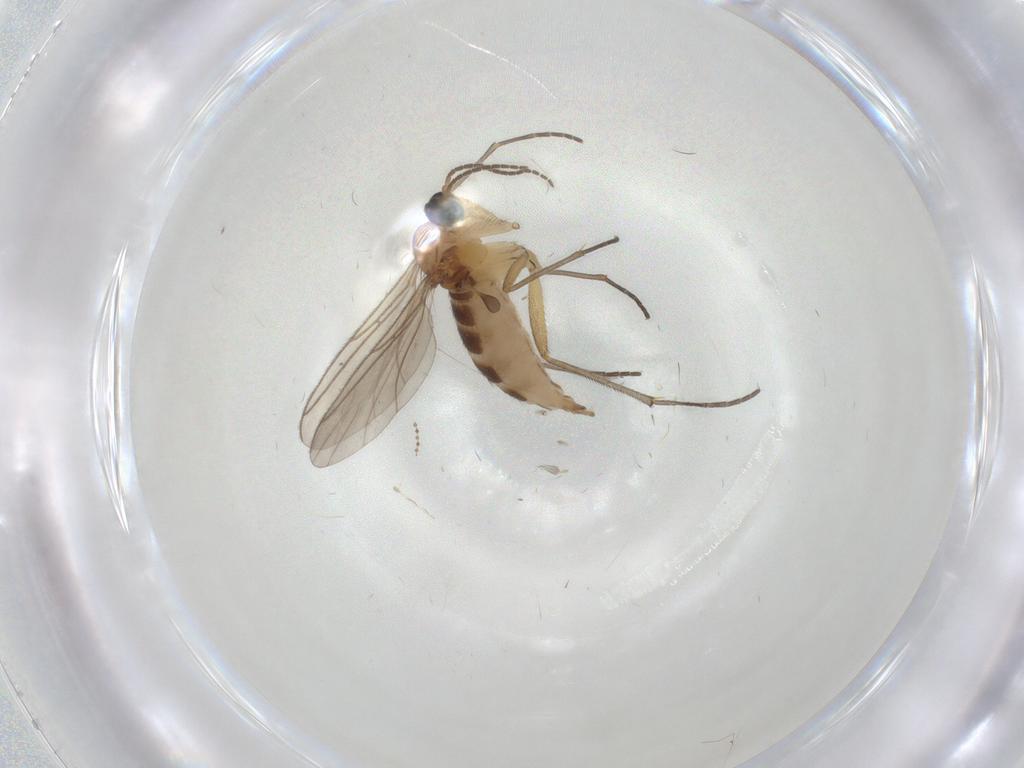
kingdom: Animalia
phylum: Arthropoda
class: Insecta
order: Diptera
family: Cecidomyiidae
